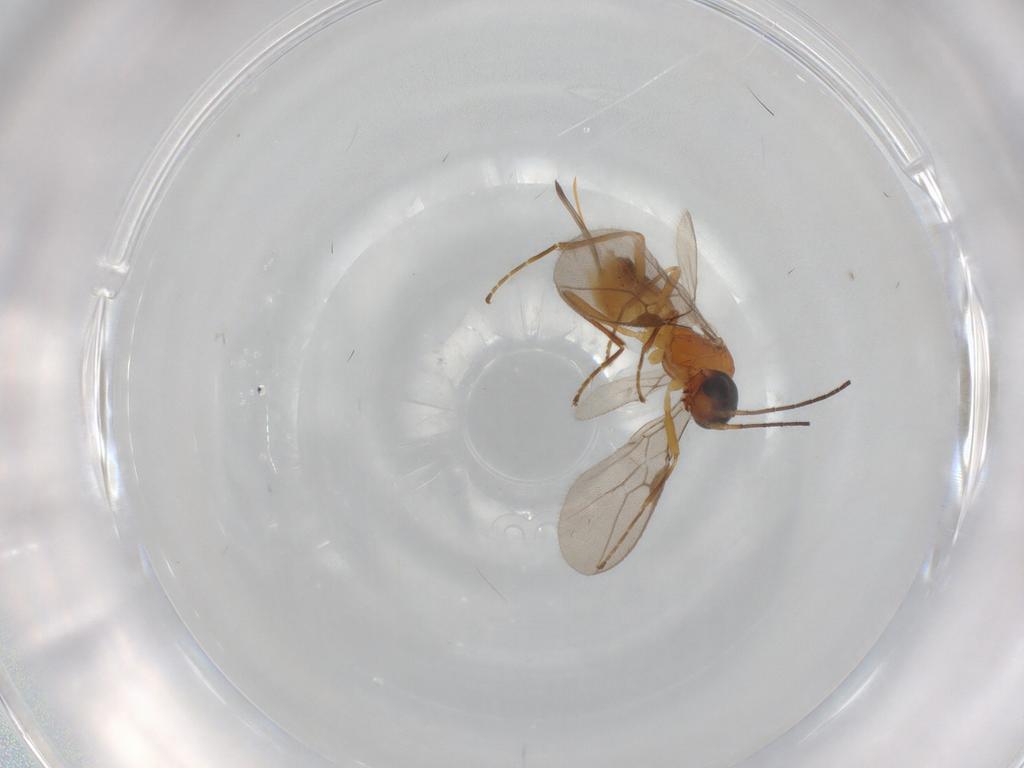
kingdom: Animalia
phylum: Arthropoda
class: Insecta
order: Hymenoptera
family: Braconidae
